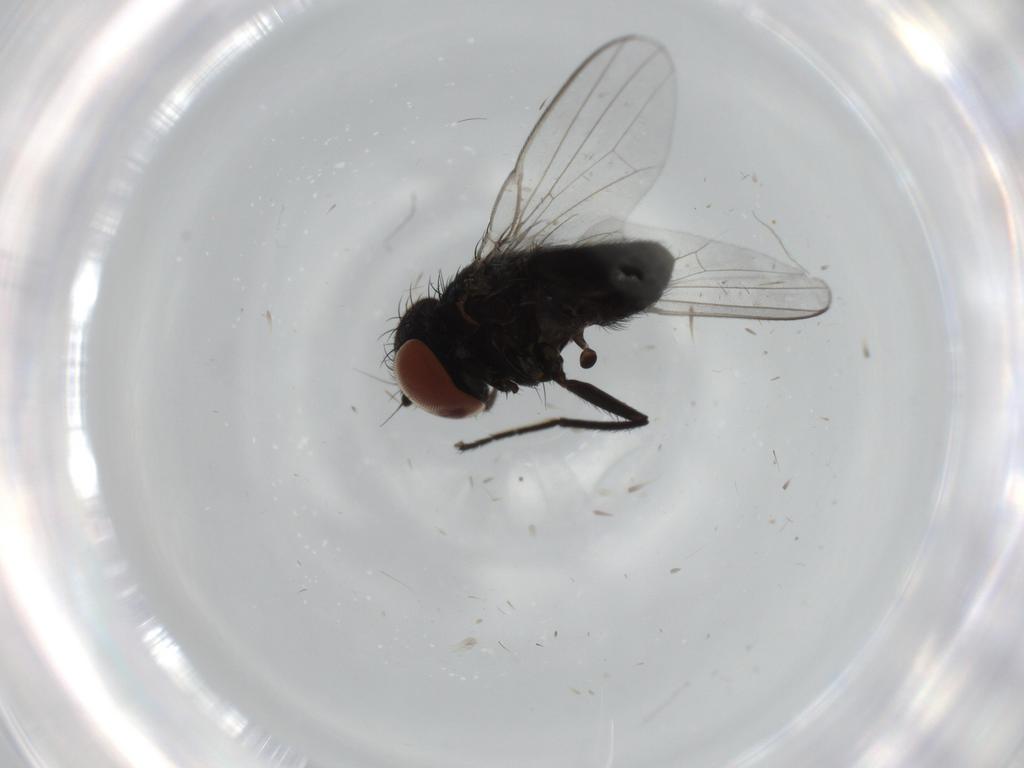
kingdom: Animalia
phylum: Arthropoda
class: Insecta
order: Diptera
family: Milichiidae
